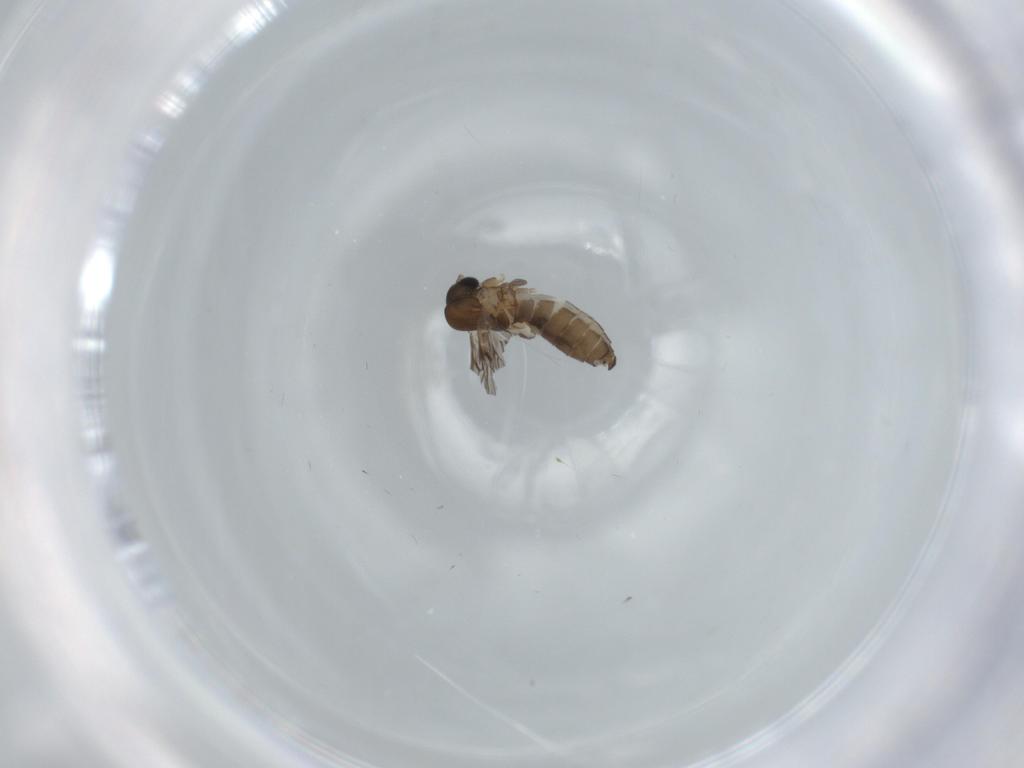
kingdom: Animalia
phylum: Arthropoda
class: Insecta
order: Diptera
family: Psychodidae
